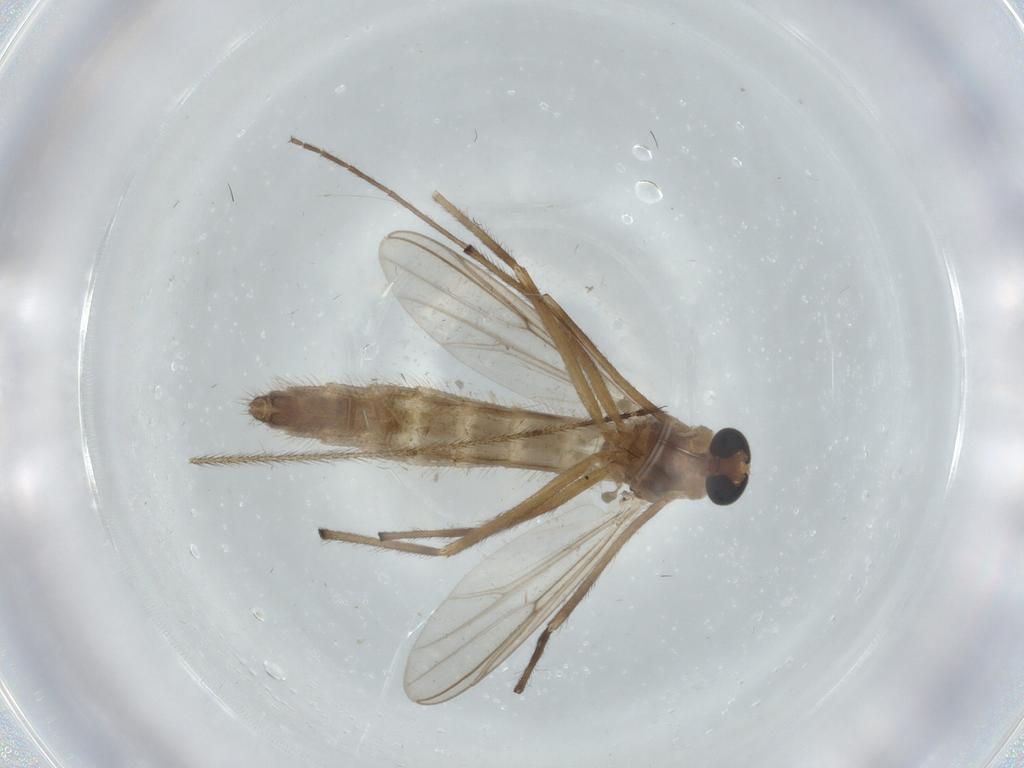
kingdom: Animalia
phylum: Arthropoda
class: Insecta
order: Diptera
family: Chironomidae
